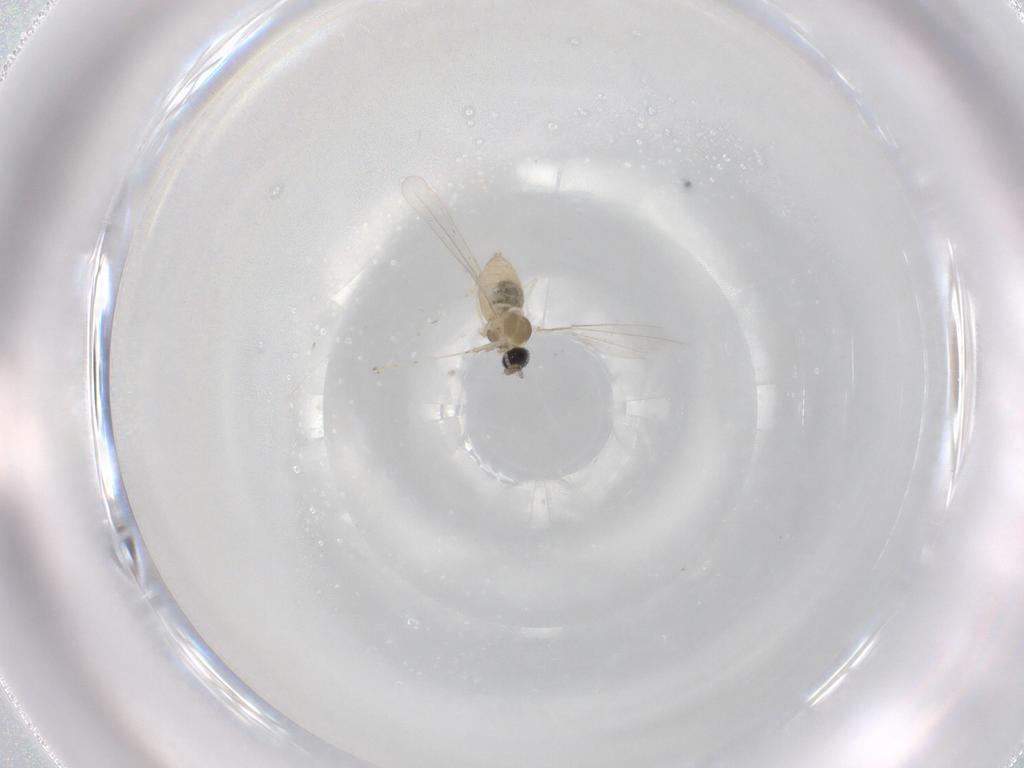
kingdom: Animalia
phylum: Arthropoda
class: Insecta
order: Diptera
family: Cecidomyiidae
